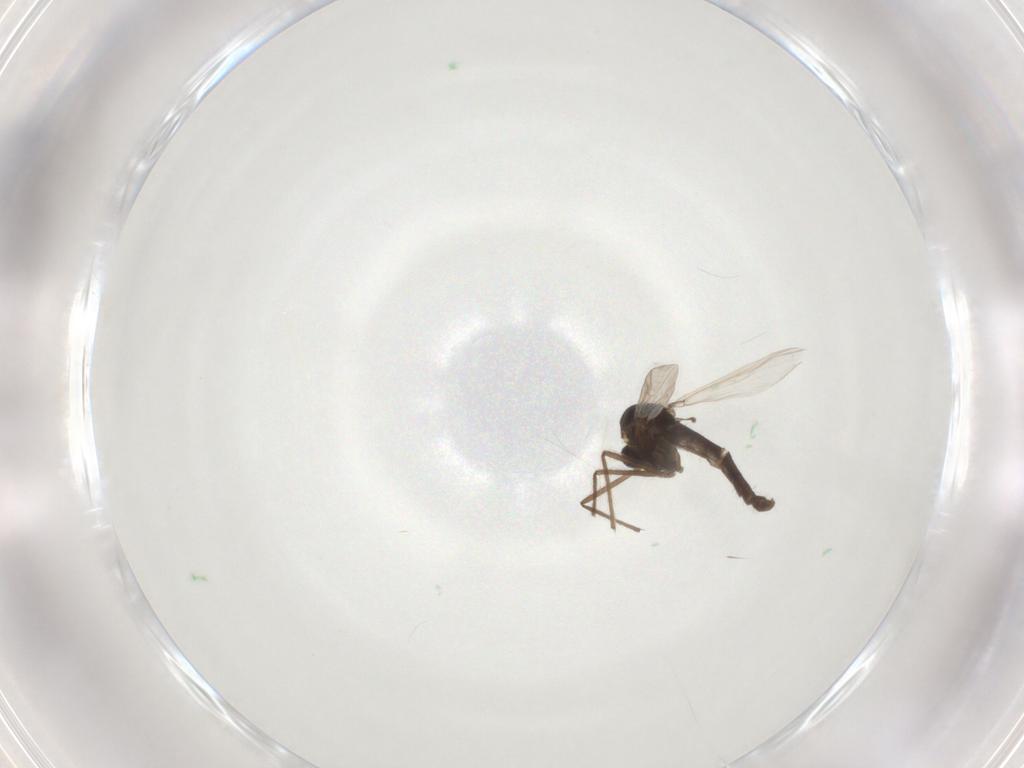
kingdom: Animalia
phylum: Arthropoda
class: Insecta
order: Diptera
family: Chironomidae
